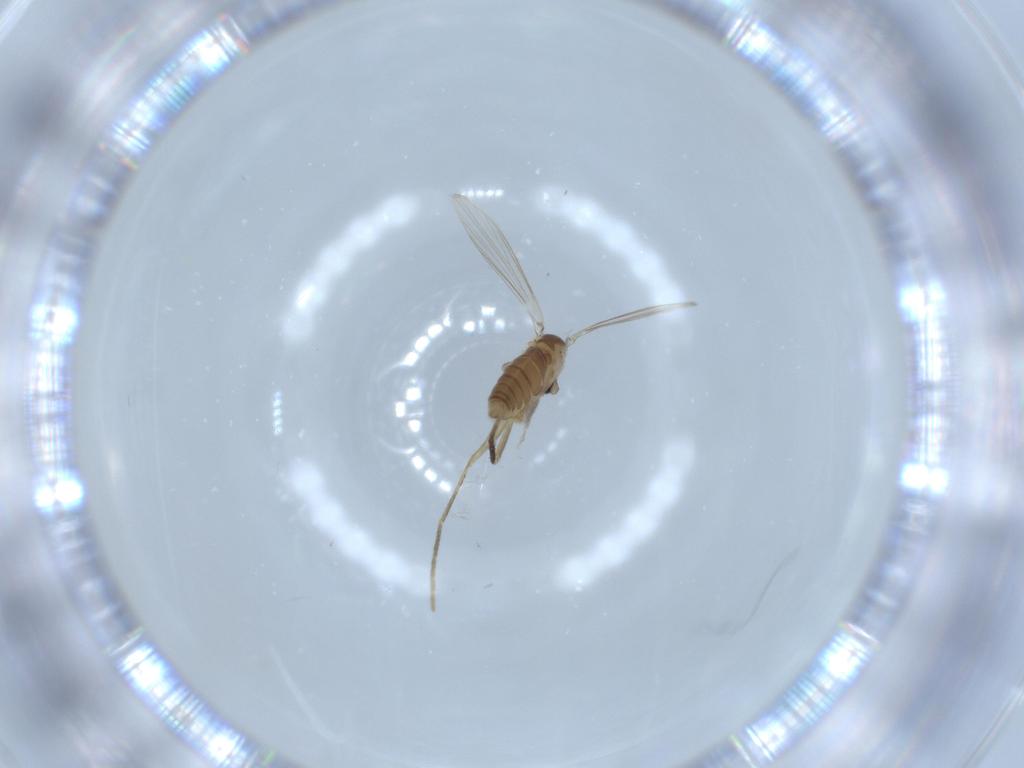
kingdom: Animalia
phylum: Arthropoda
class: Insecta
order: Diptera
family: Psychodidae
